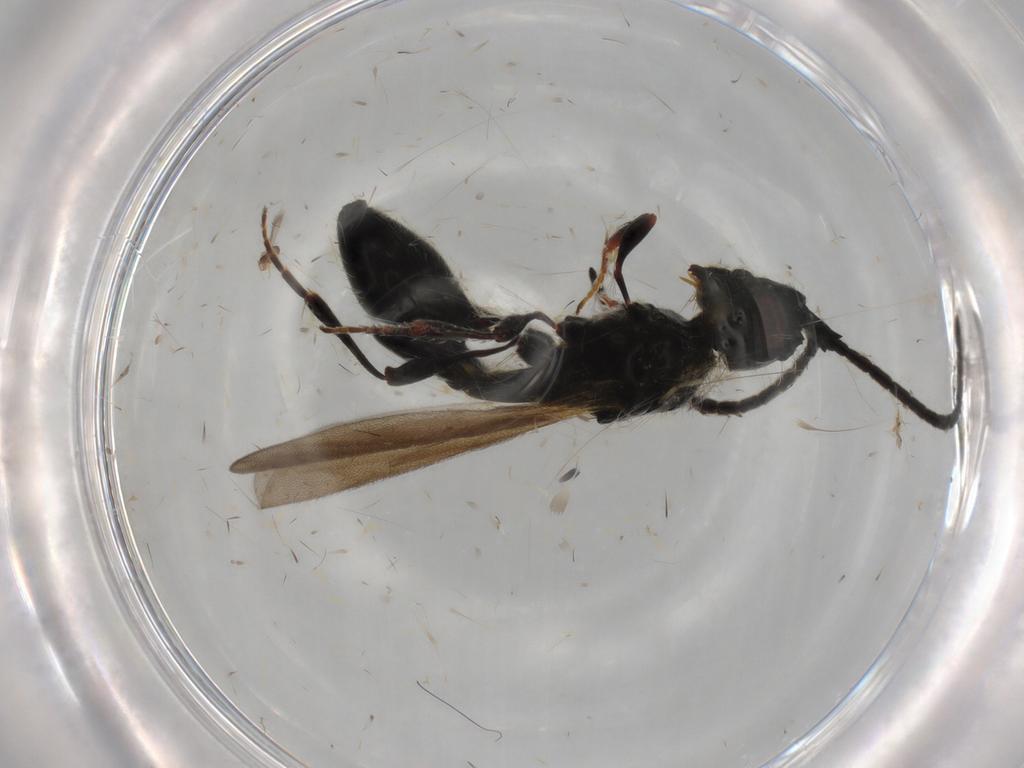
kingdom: Animalia
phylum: Arthropoda
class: Insecta
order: Hymenoptera
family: Diapriidae
